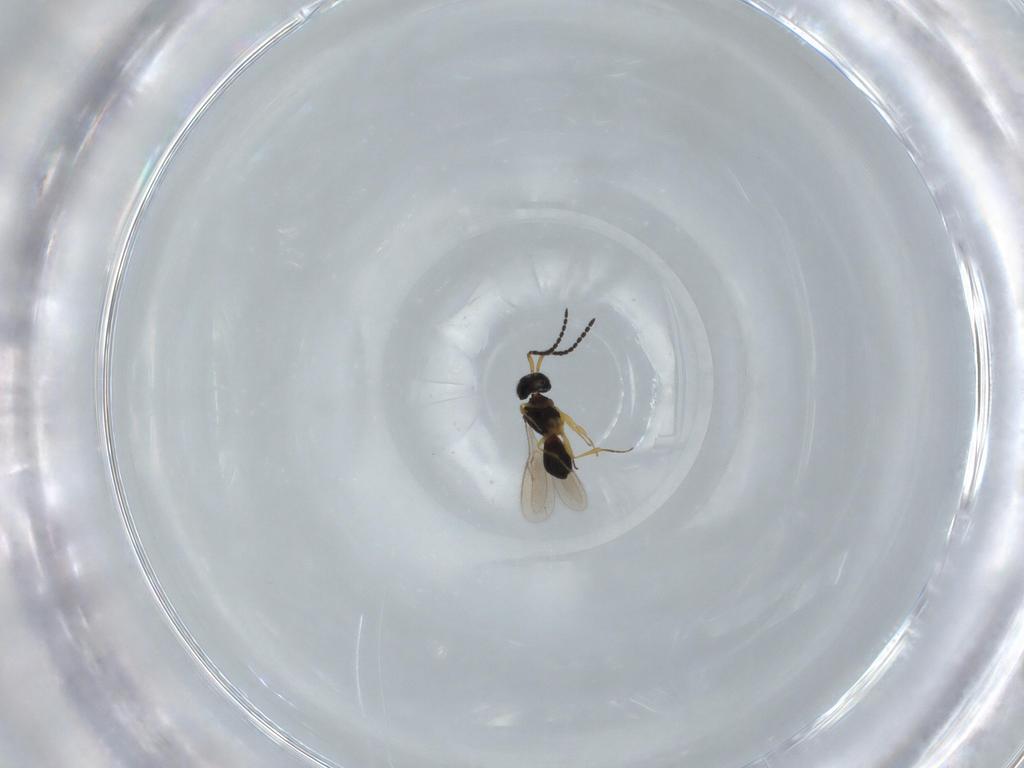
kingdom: Animalia
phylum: Arthropoda
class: Insecta
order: Hymenoptera
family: Scelionidae
